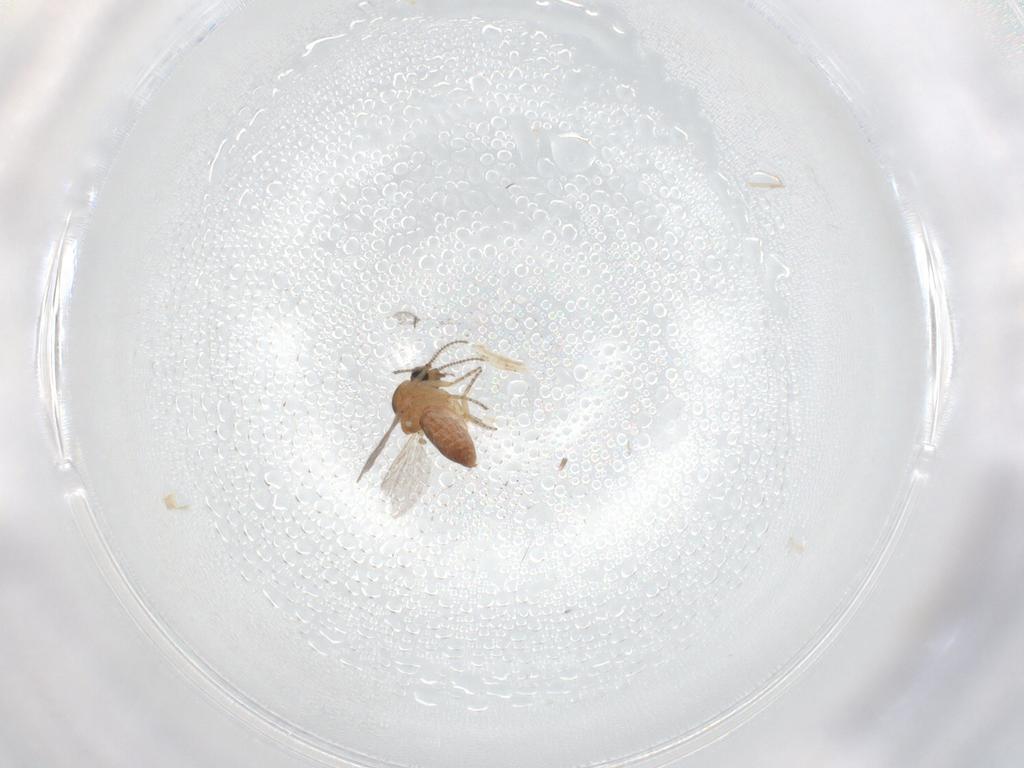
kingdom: Animalia
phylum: Arthropoda
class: Insecta
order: Diptera
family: Ceratopogonidae
